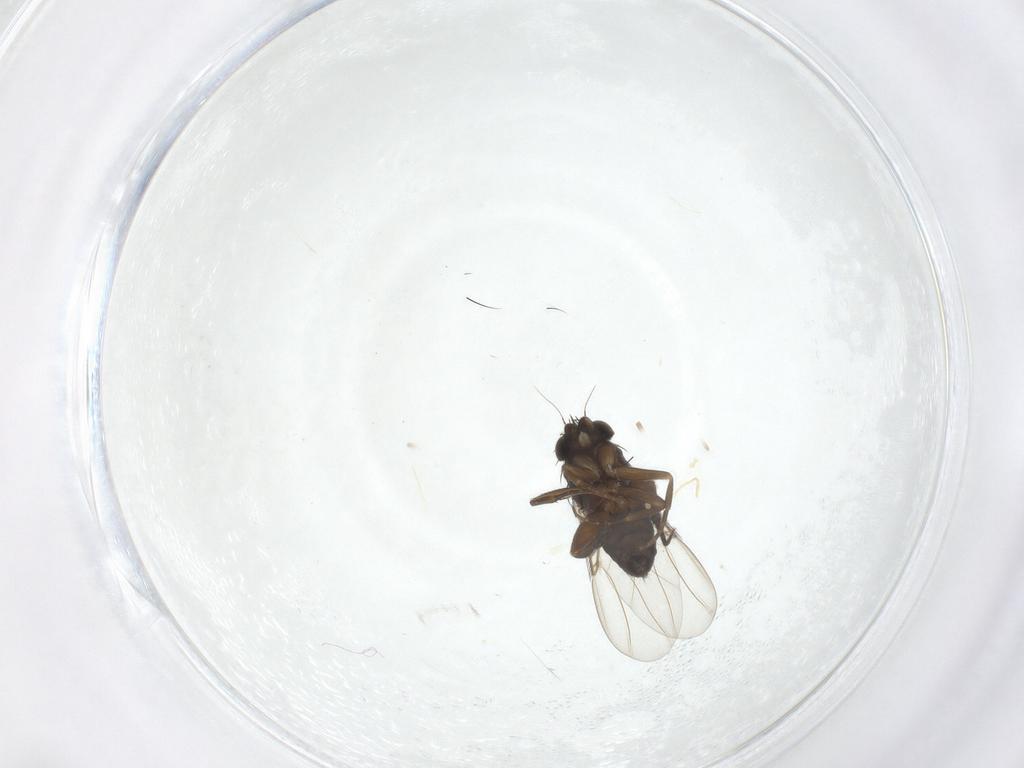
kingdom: Animalia
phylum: Arthropoda
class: Insecta
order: Diptera
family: Phoridae
